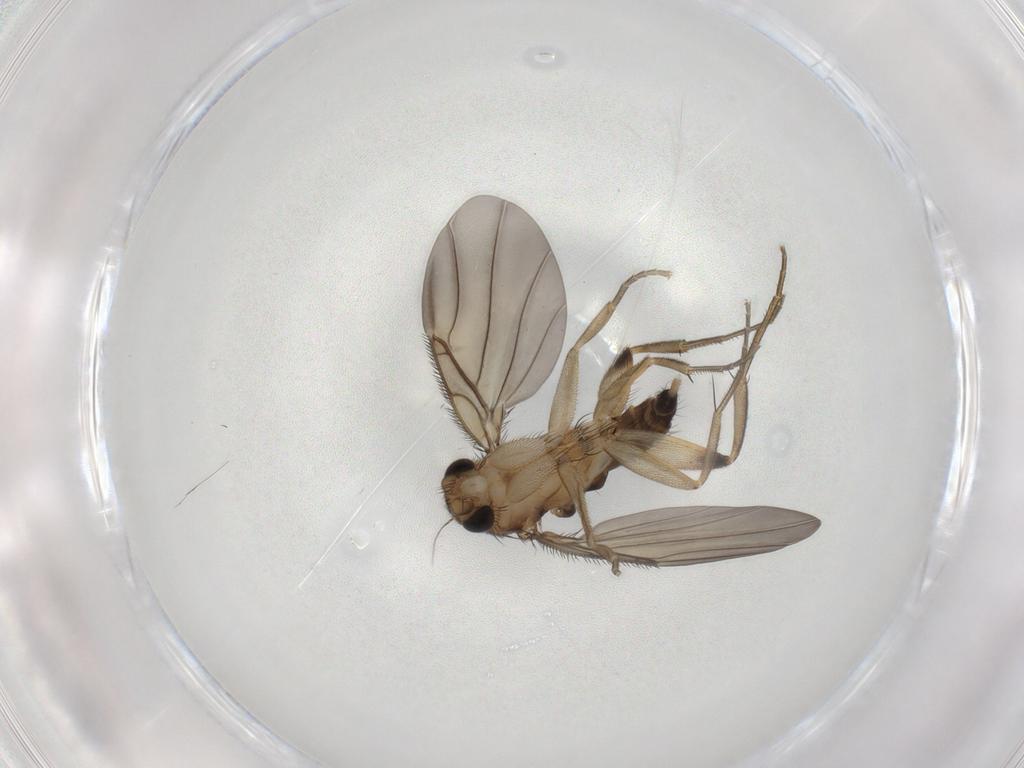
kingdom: Animalia
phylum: Arthropoda
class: Insecta
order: Diptera
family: Phoridae
